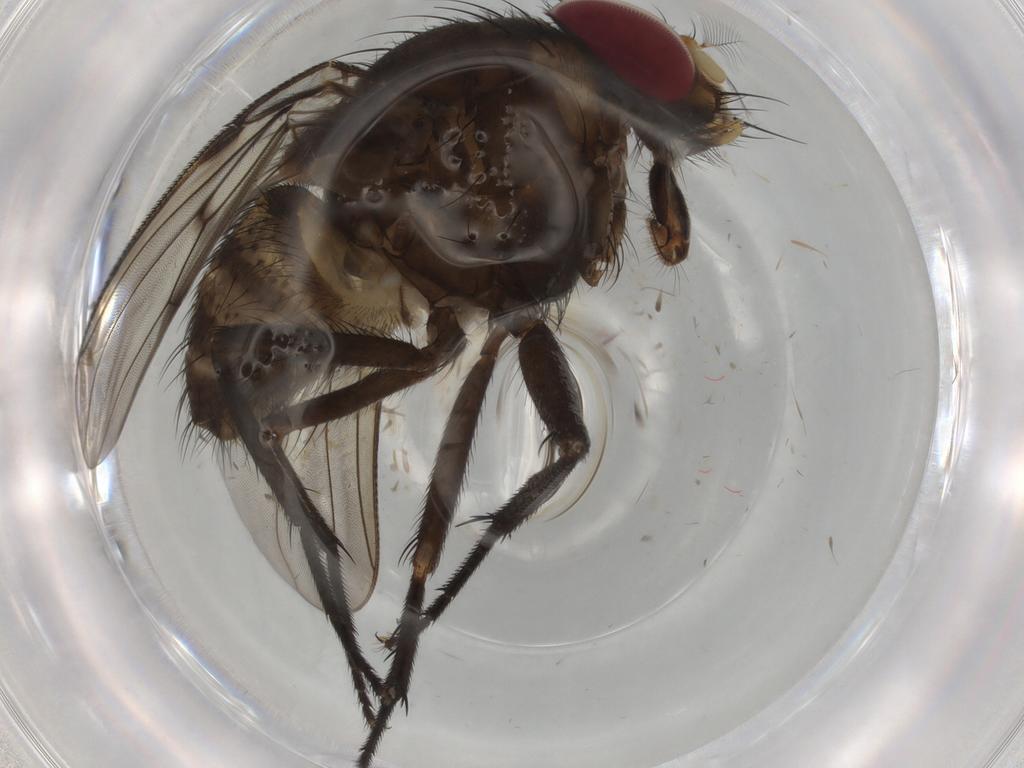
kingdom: Animalia
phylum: Arthropoda
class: Insecta
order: Diptera
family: Muscidae
